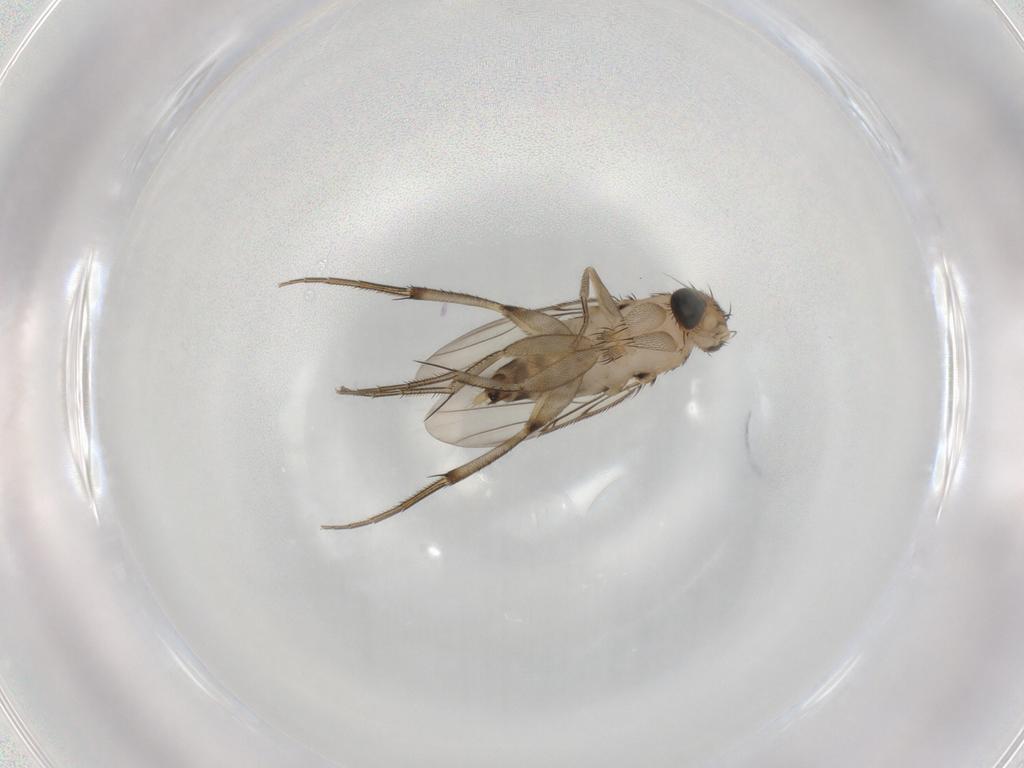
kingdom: Animalia
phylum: Arthropoda
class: Insecta
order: Diptera
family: Phoridae
